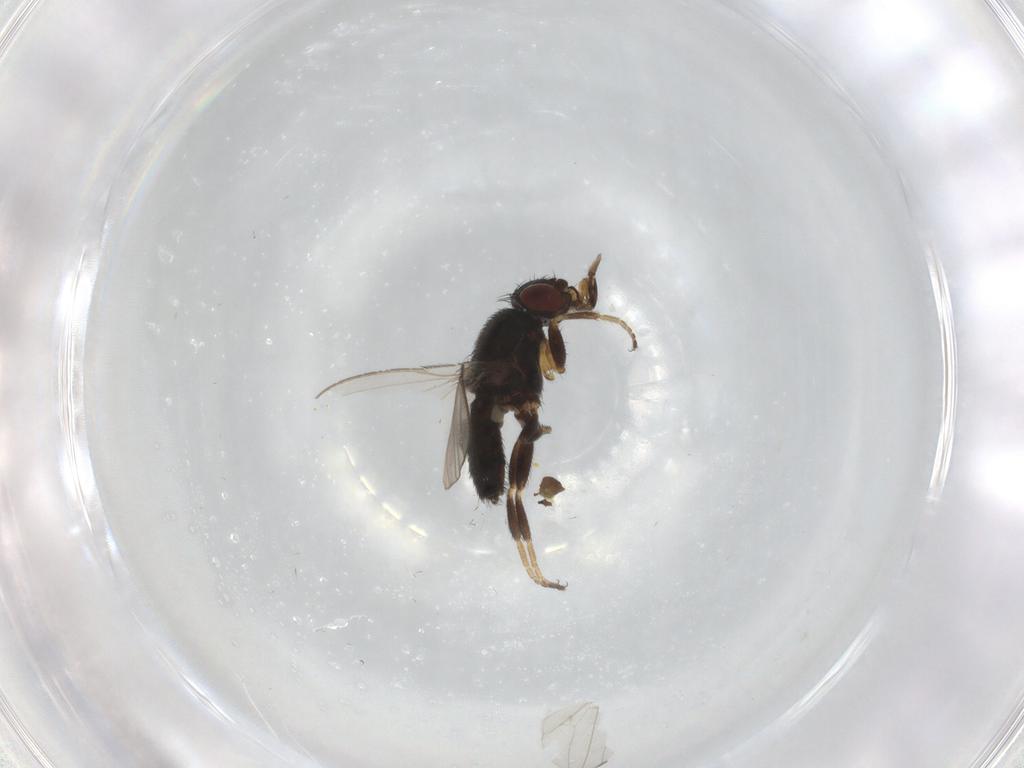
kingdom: Animalia
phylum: Arthropoda
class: Insecta
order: Diptera
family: Milichiidae
